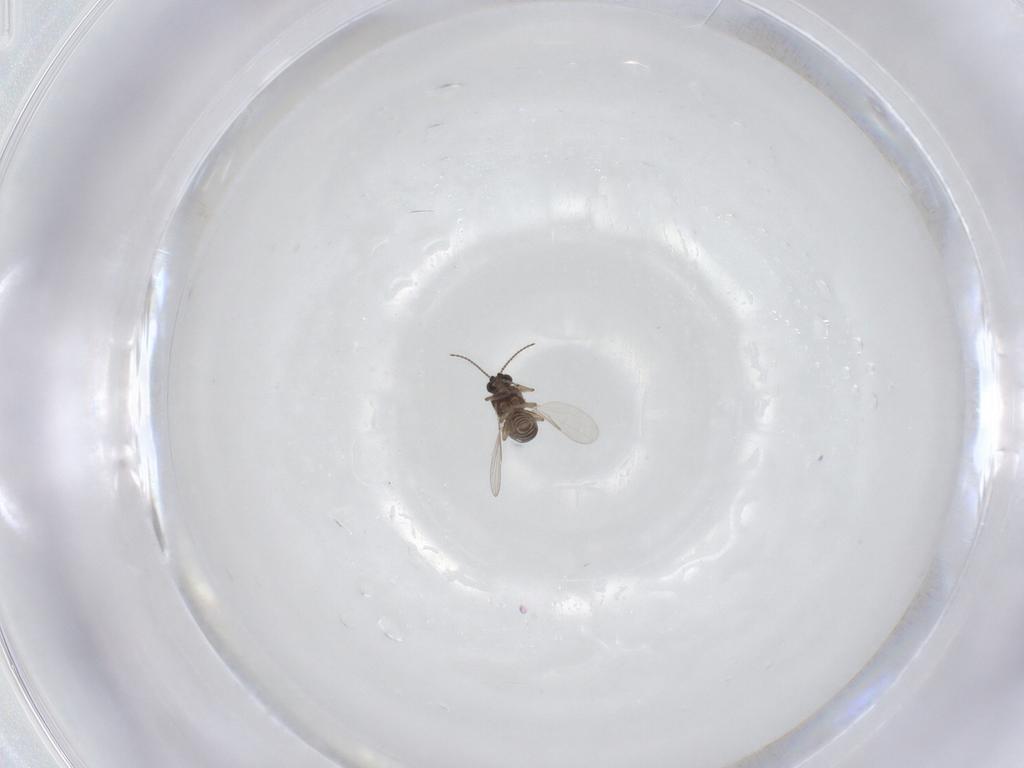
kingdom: Animalia
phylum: Arthropoda
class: Insecta
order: Diptera
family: Ceratopogonidae
